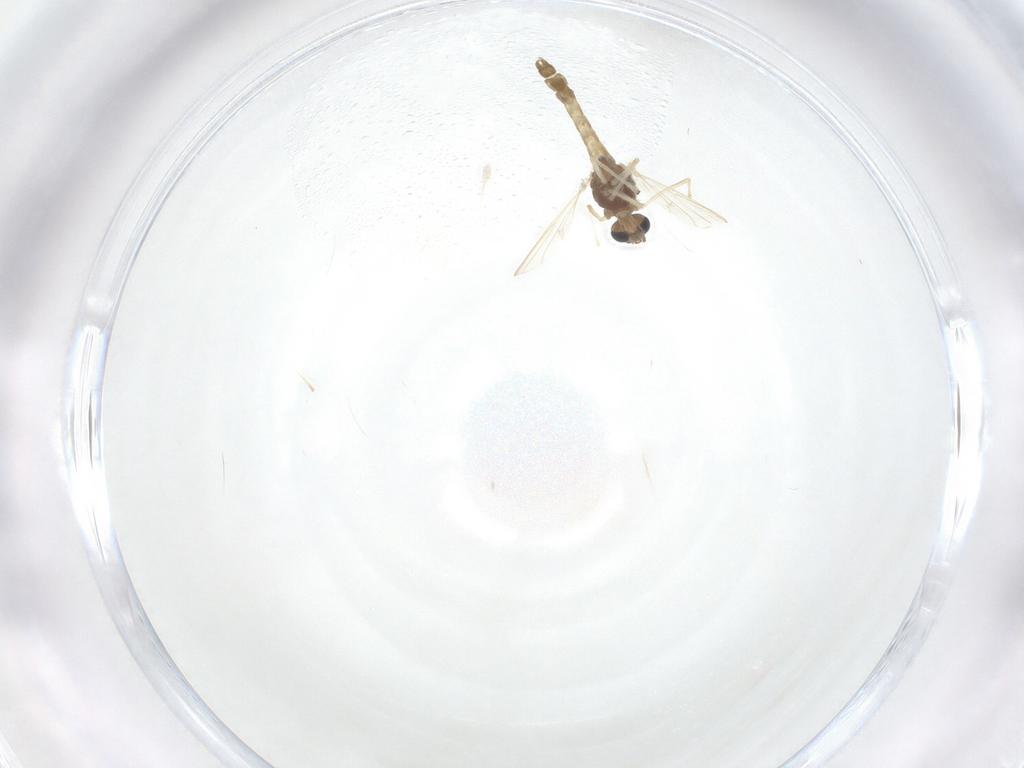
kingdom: Animalia
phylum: Arthropoda
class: Insecta
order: Diptera
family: Chironomidae
